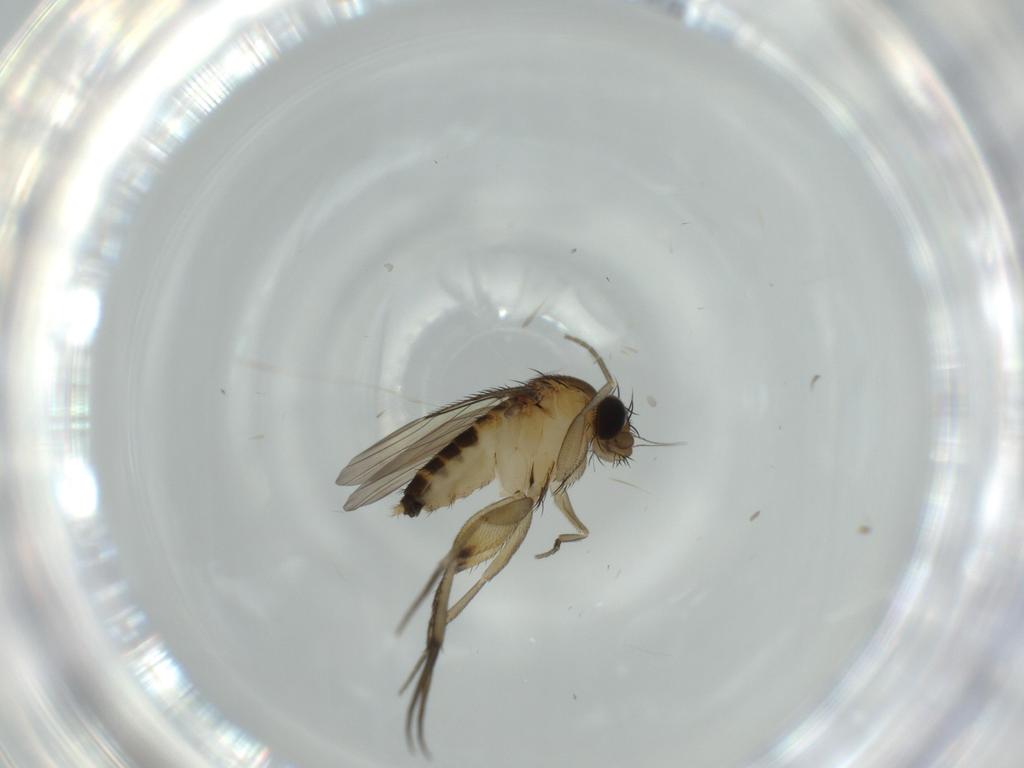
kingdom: Animalia
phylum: Arthropoda
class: Insecta
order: Diptera
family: Phoridae
